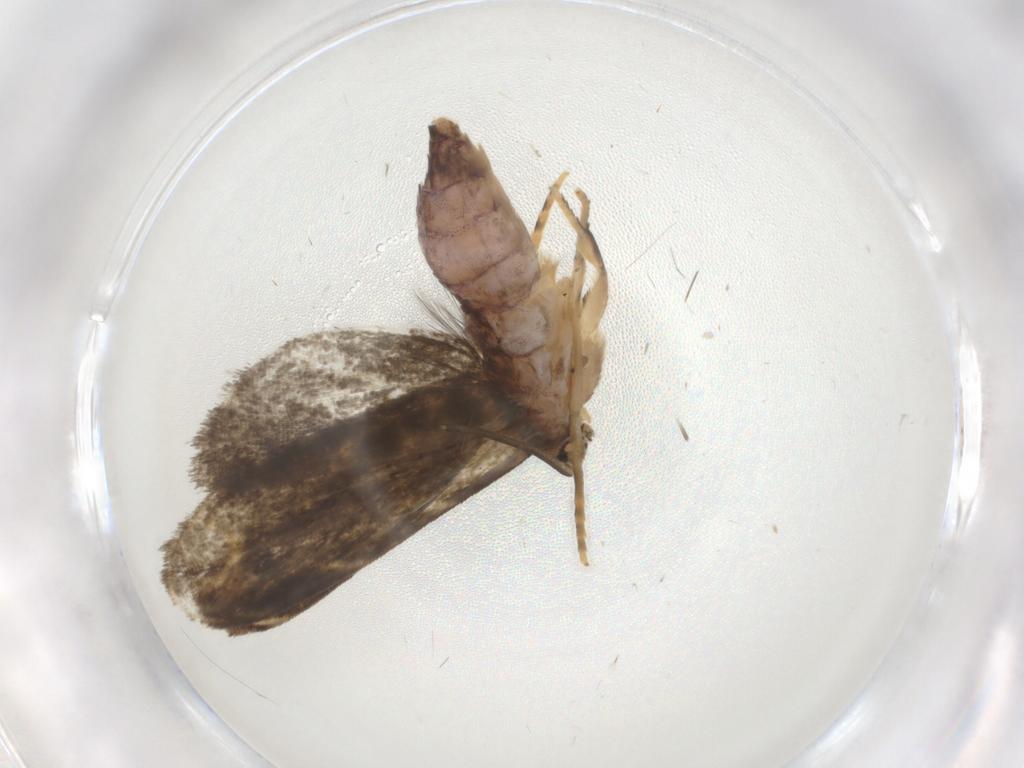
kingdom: Animalia
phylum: Arthropoda
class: Insecta
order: Lepidoptera
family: Dryadaulidae
